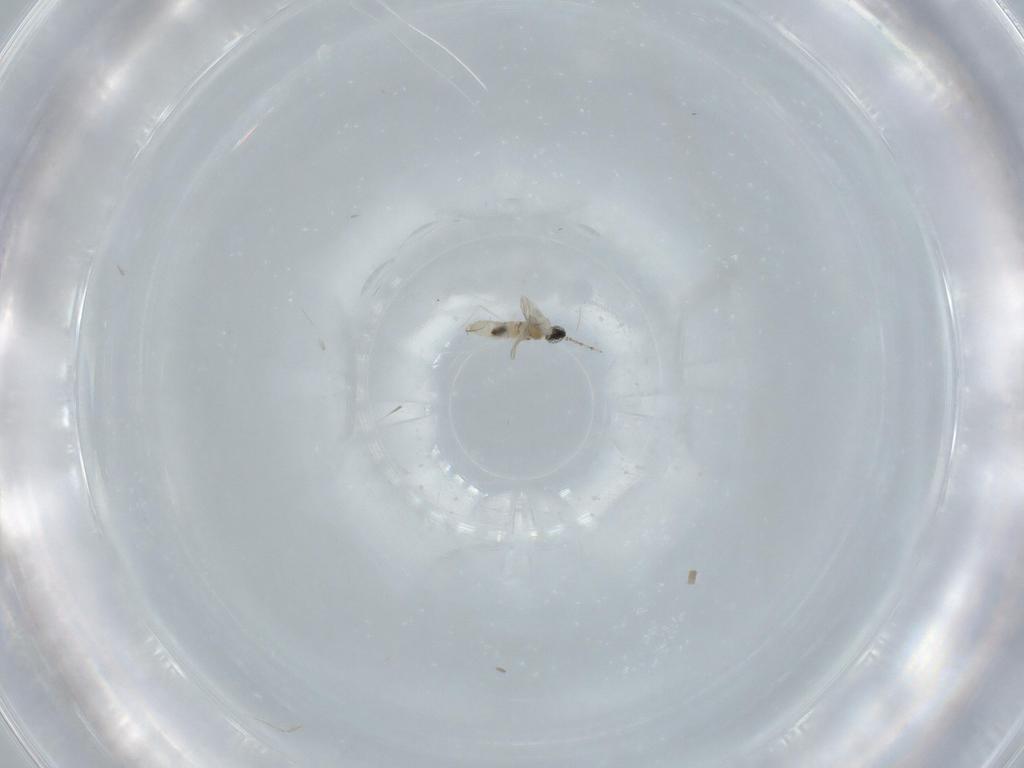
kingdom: Animalia
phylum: Arthropoda
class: Insecta
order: Diptera
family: Cecidomyiidae
